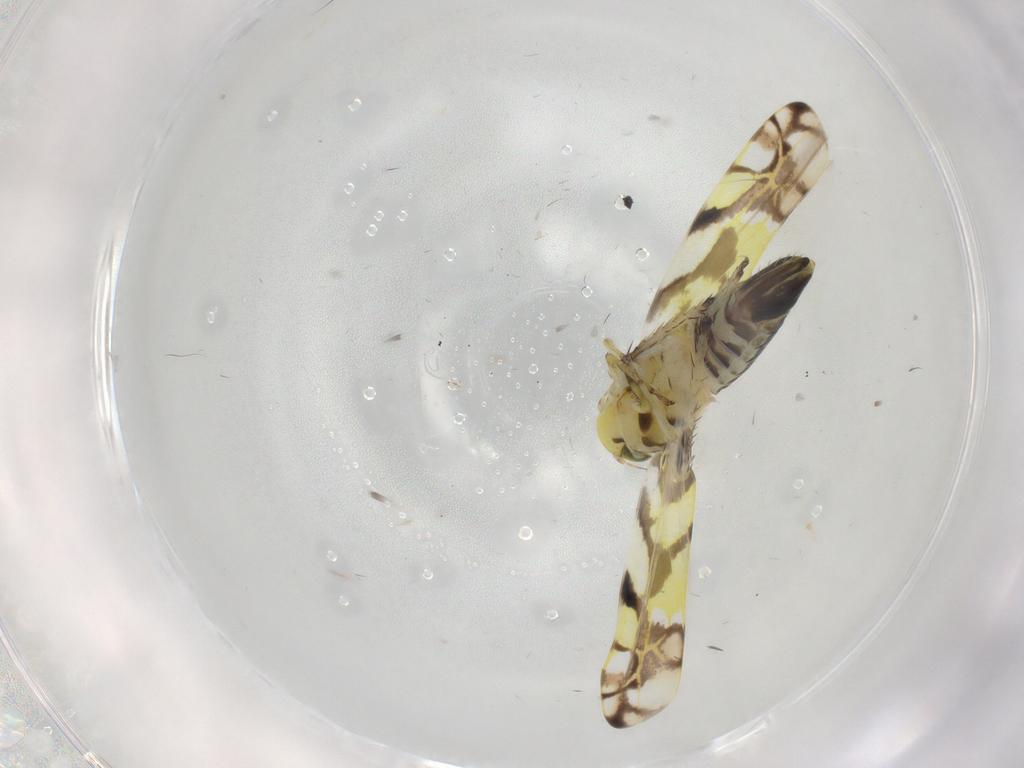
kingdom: Animalia
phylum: Arthropoda
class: Insecta
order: Hemiptera
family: Cicadellidae
